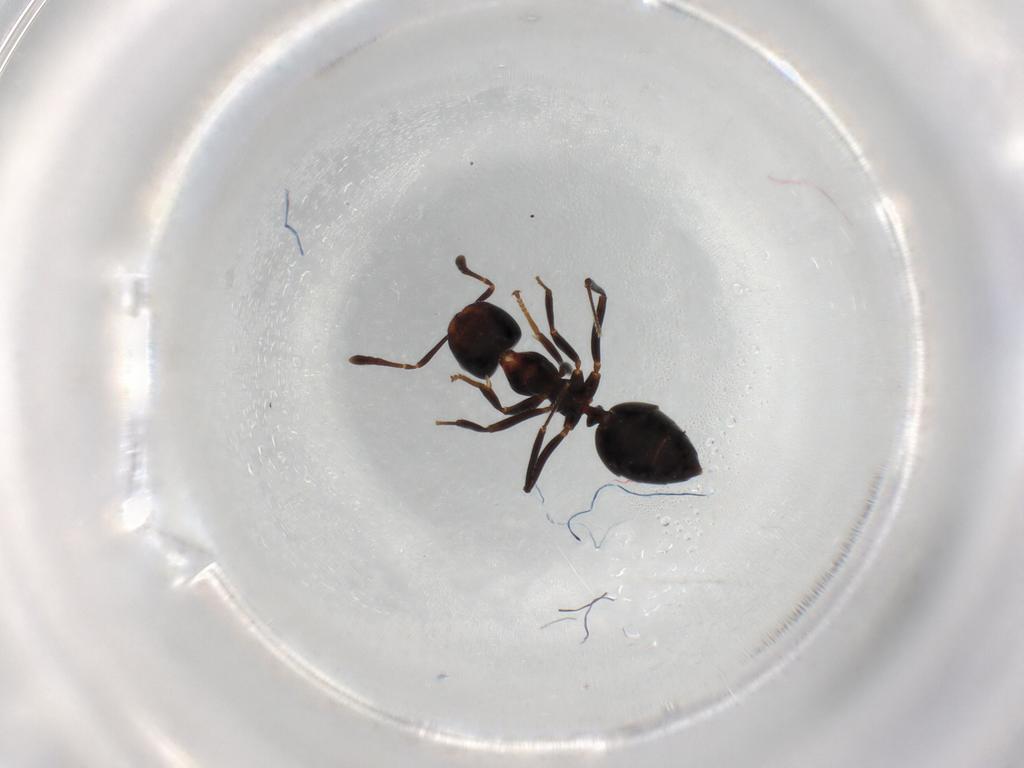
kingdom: Animalia
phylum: Arthropoda
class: Insecta
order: Hymenoptera
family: Formicidae
